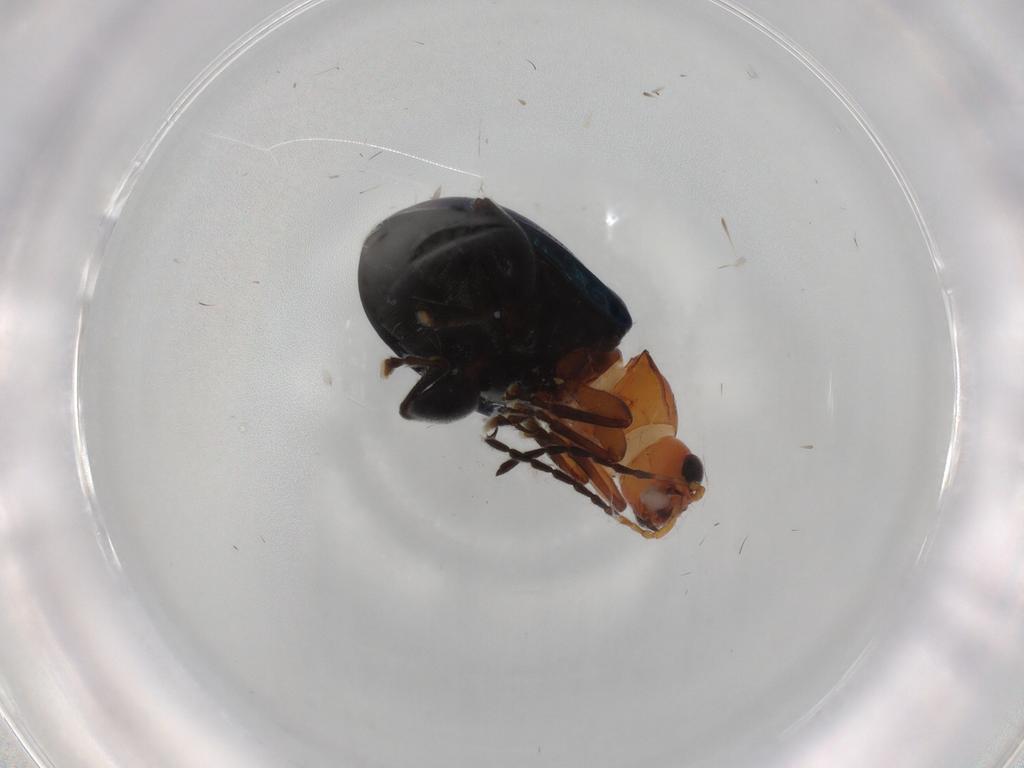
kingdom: Animalia
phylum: Arthropoda
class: Insecta
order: Coleoptera
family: Chrysomelidae
